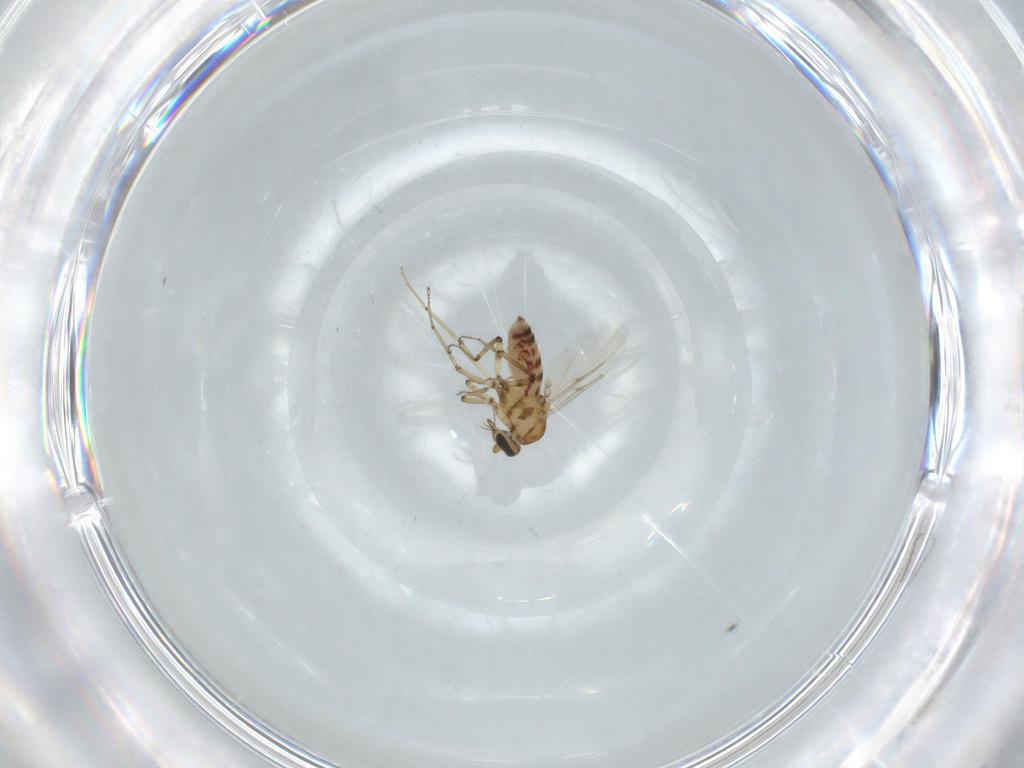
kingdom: Animalia
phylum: Arthropoda
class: Insecta
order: Diptera
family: Ceratopogonidae
